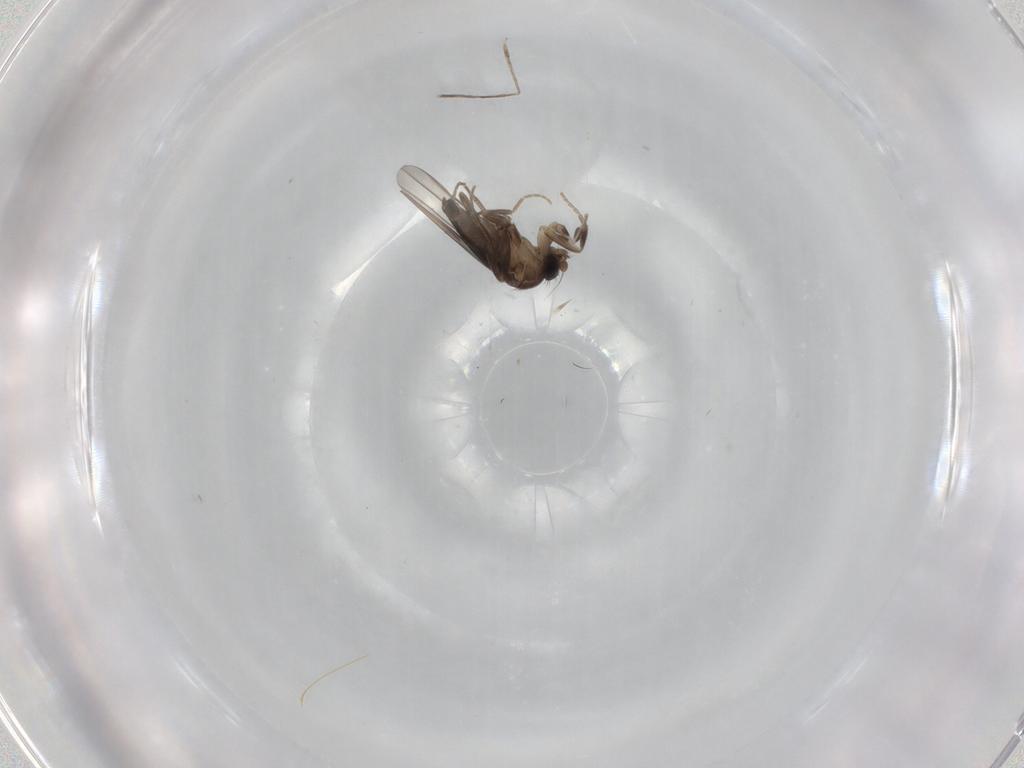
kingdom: Animalia
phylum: Arthropoda
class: Insecta
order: Diptera
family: Phoridae
